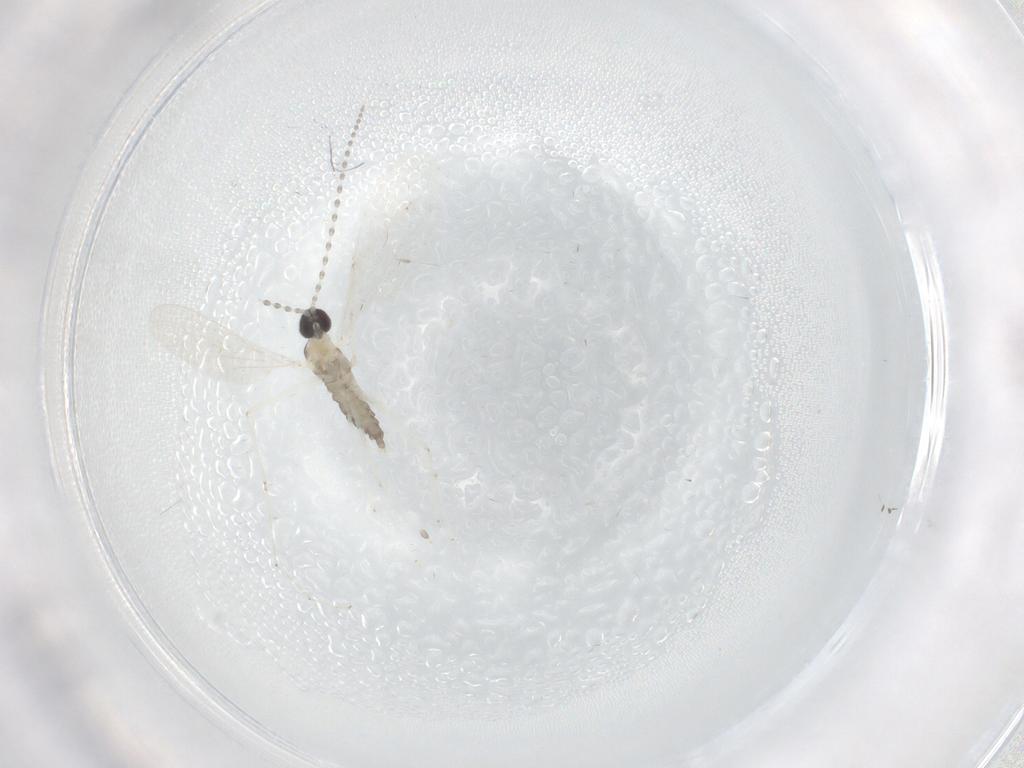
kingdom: Animalia
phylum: Arthropoda
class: Insecta
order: Diptera
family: Cecidomyiidae
